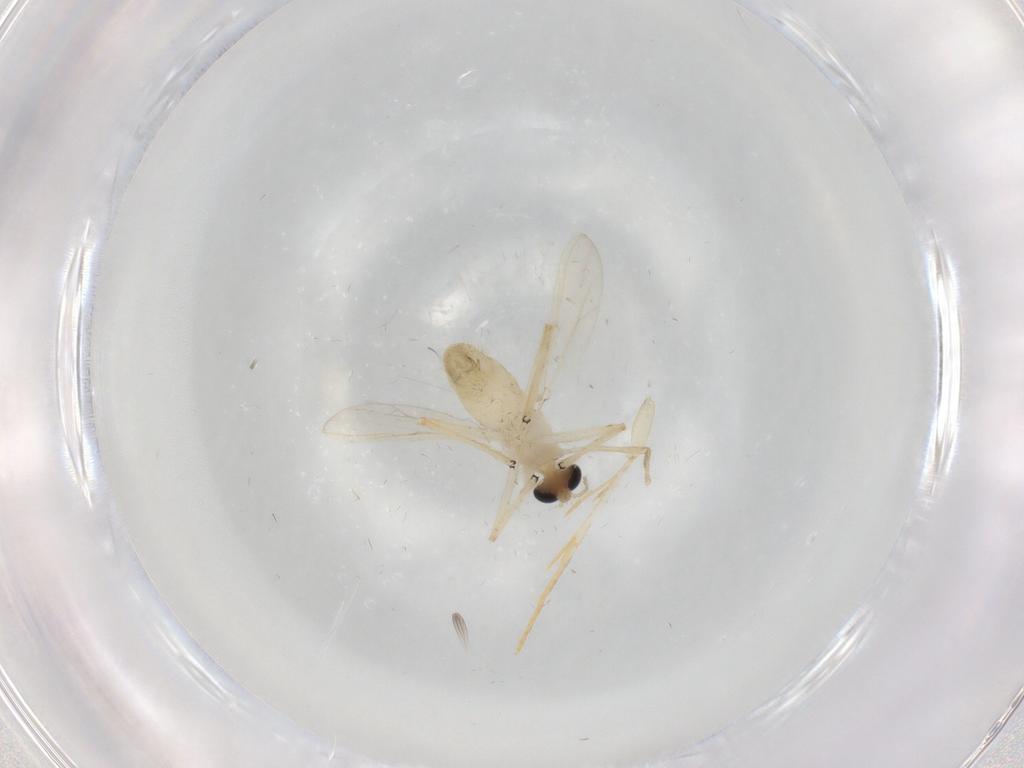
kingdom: Animalia
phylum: Arthropoda
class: Insecta
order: Diptera
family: Chironomidae
